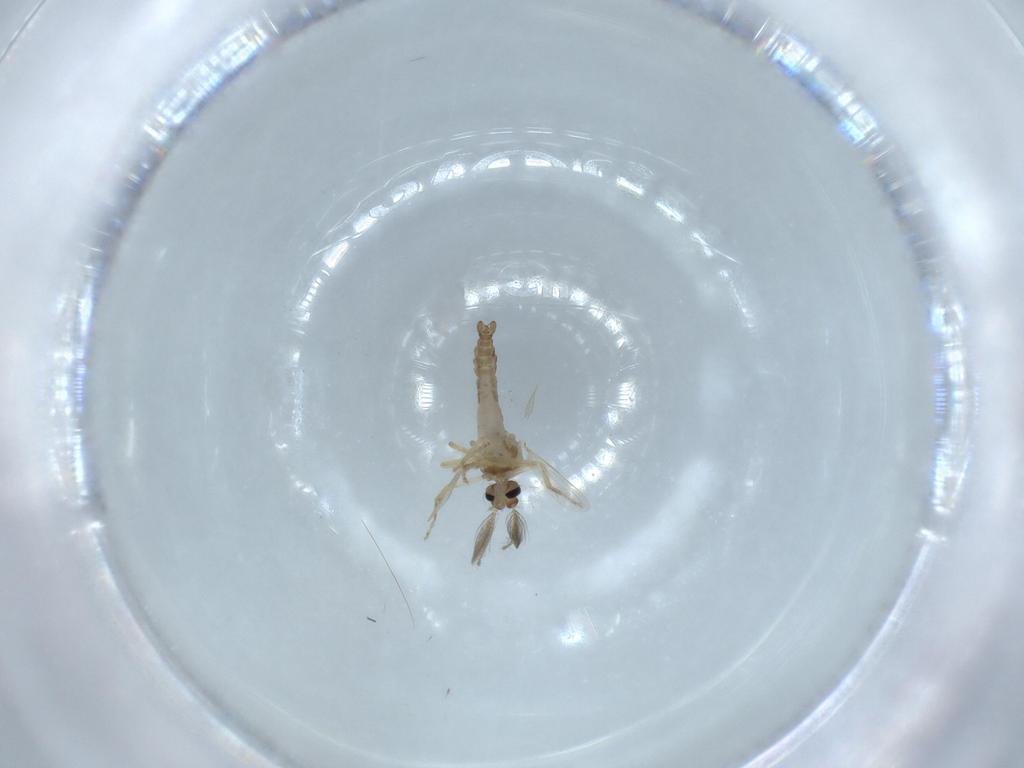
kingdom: Animalia
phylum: Arthropoda
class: Insecta
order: Diptera
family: Ceratopogonidae
